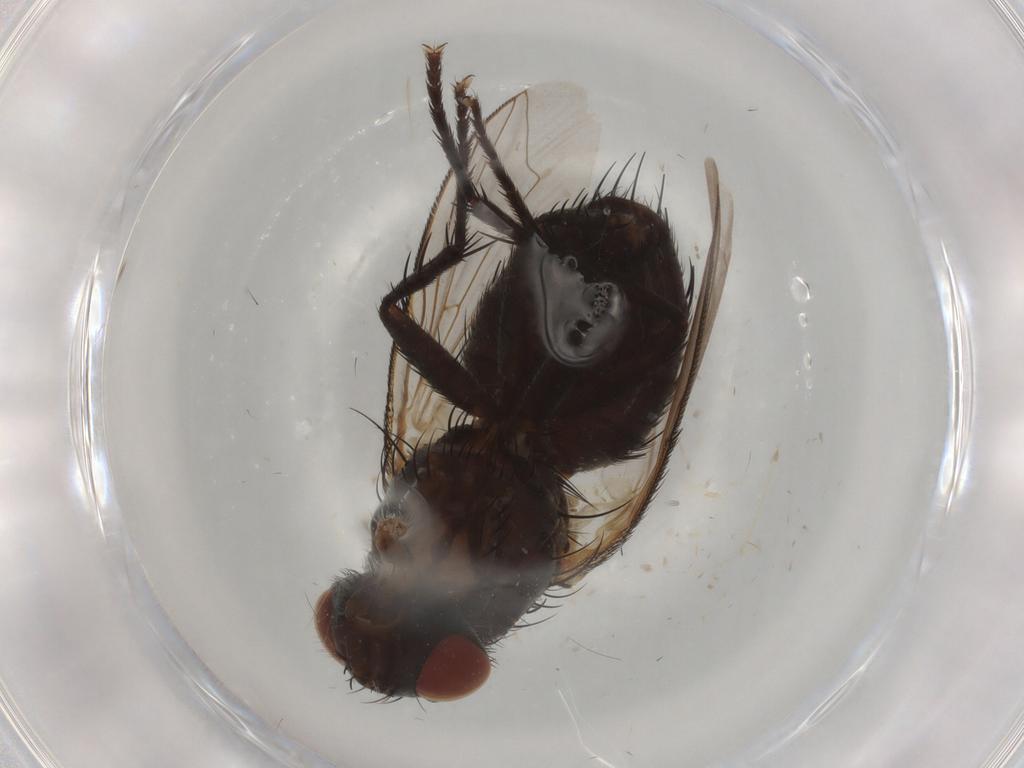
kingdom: Animalia
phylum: Arthropoda
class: Insecta
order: Diptera
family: Sarcophagidae
